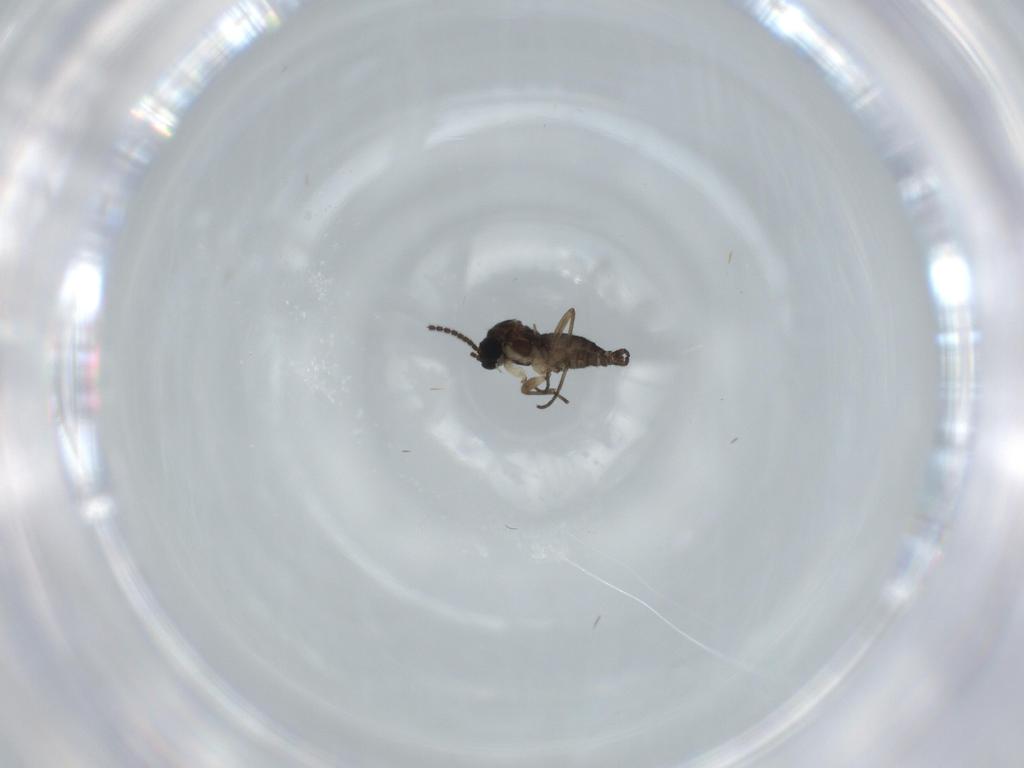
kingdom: Animalia
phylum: Arthropoda
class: Insecta
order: Diptera
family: Sciaridae
